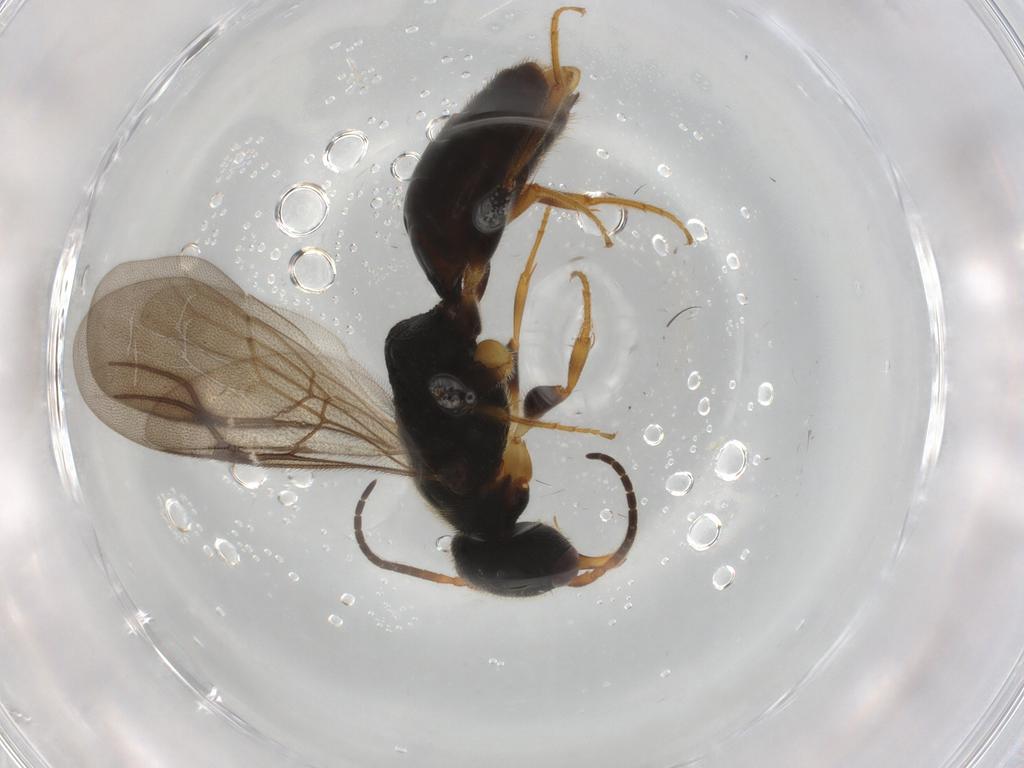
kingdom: Animalia
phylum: Arthropoda
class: Insecta
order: Hymenoptera
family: Bethylidae
